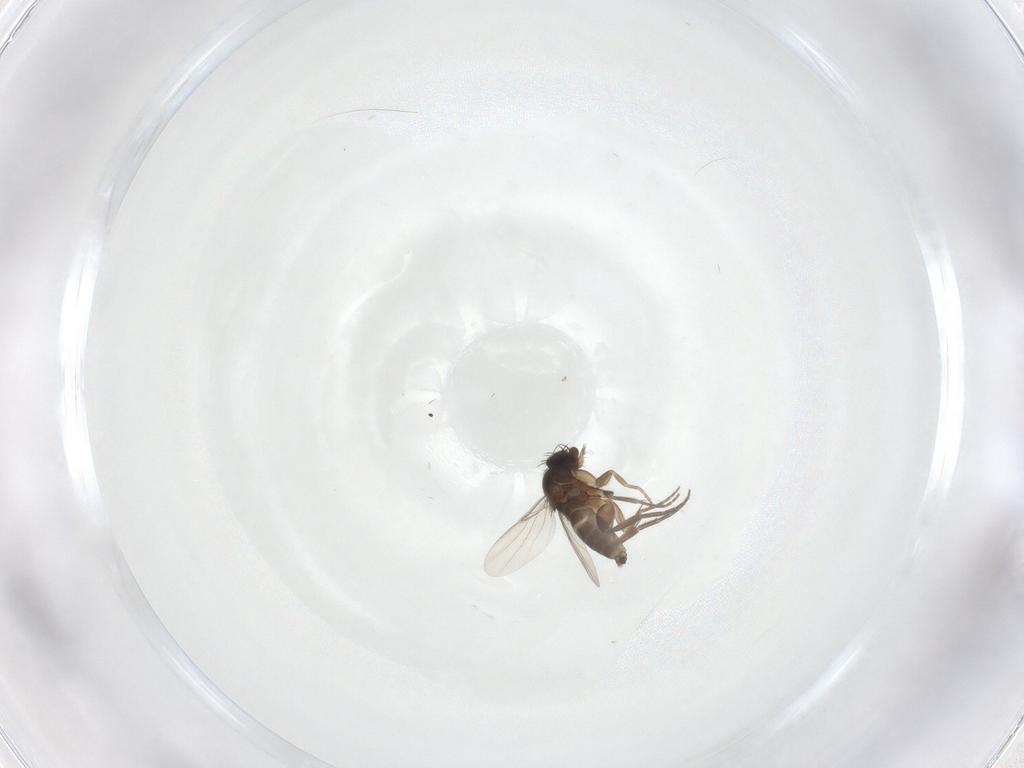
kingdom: Animalia
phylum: Arthropoda
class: Insecta
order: Diptera
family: Phoridae
